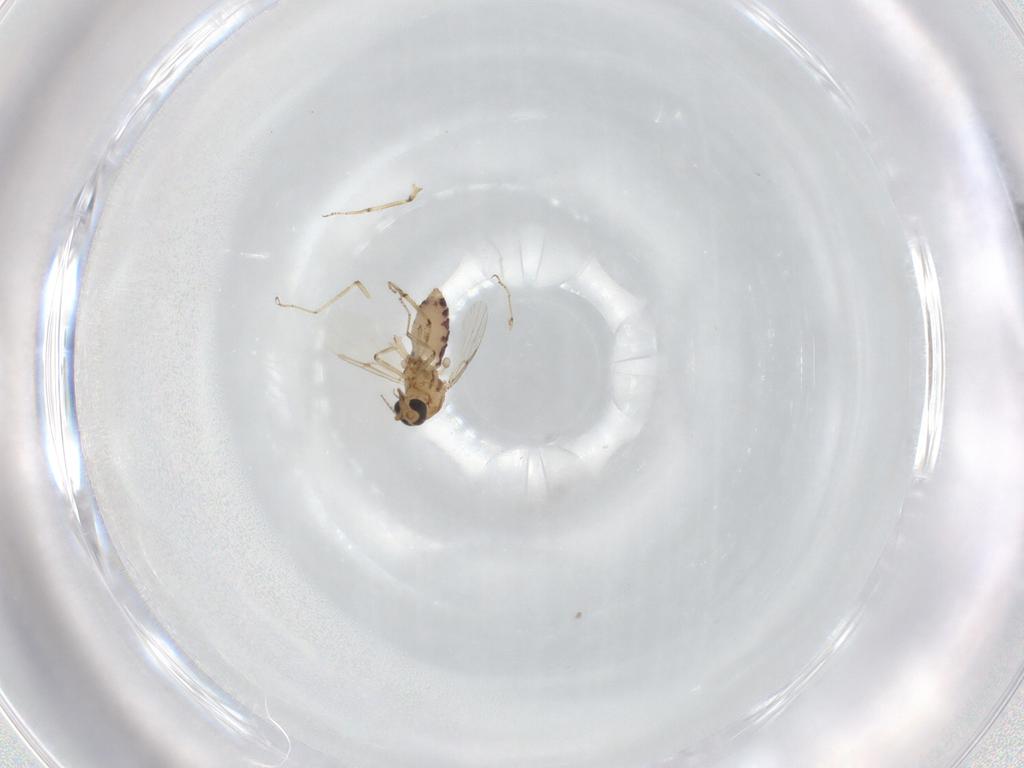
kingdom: Animalia
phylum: Arthropoda
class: Insecta
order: Diptera
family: Ceratopogonidae
